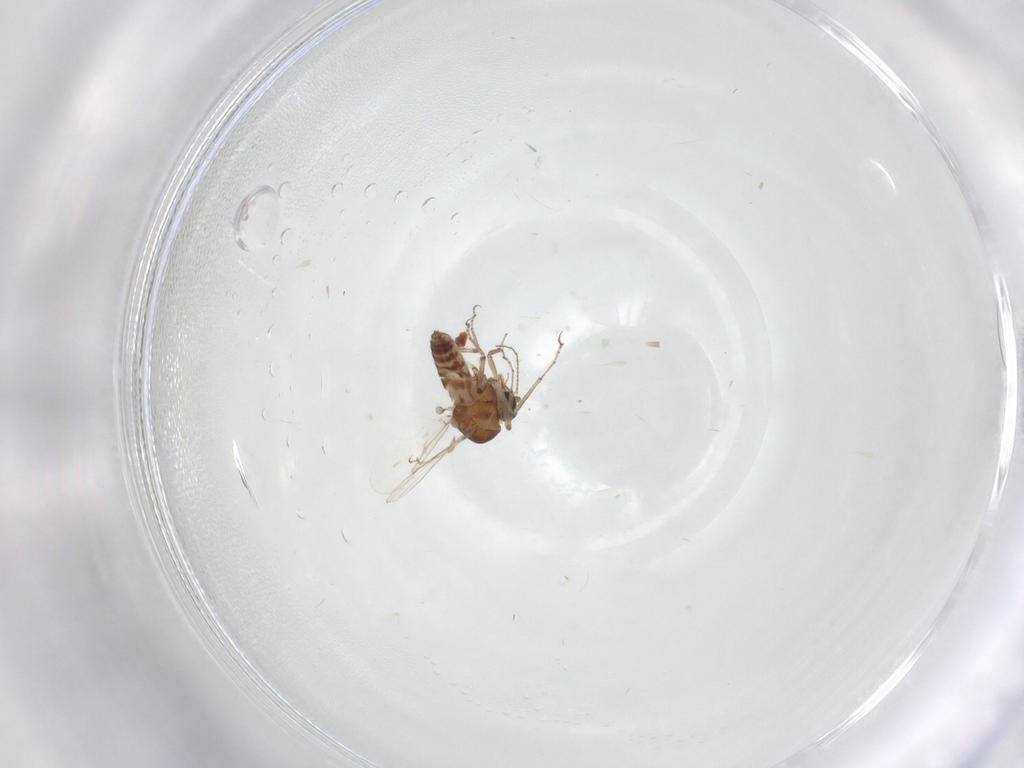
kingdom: Animalia
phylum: Arthropoda
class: Insecta
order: Diptera
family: Ceratopogonidae
